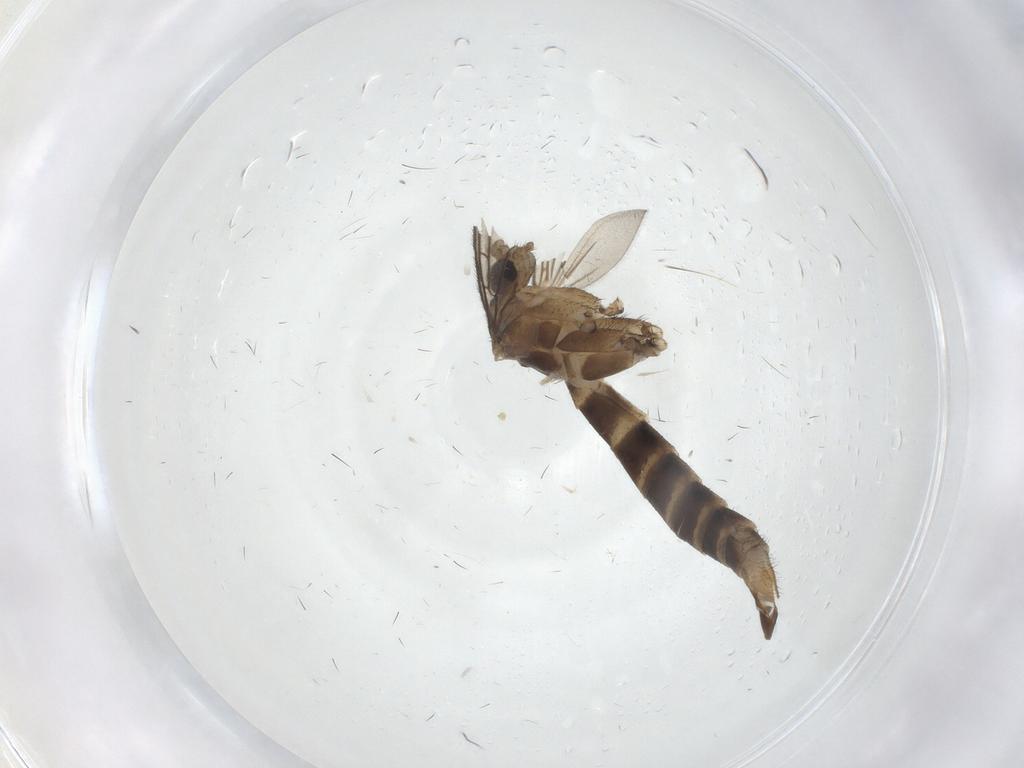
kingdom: Animalia
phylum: Arthropoda
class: Insecta
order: Diptera
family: Mycetophilidae
